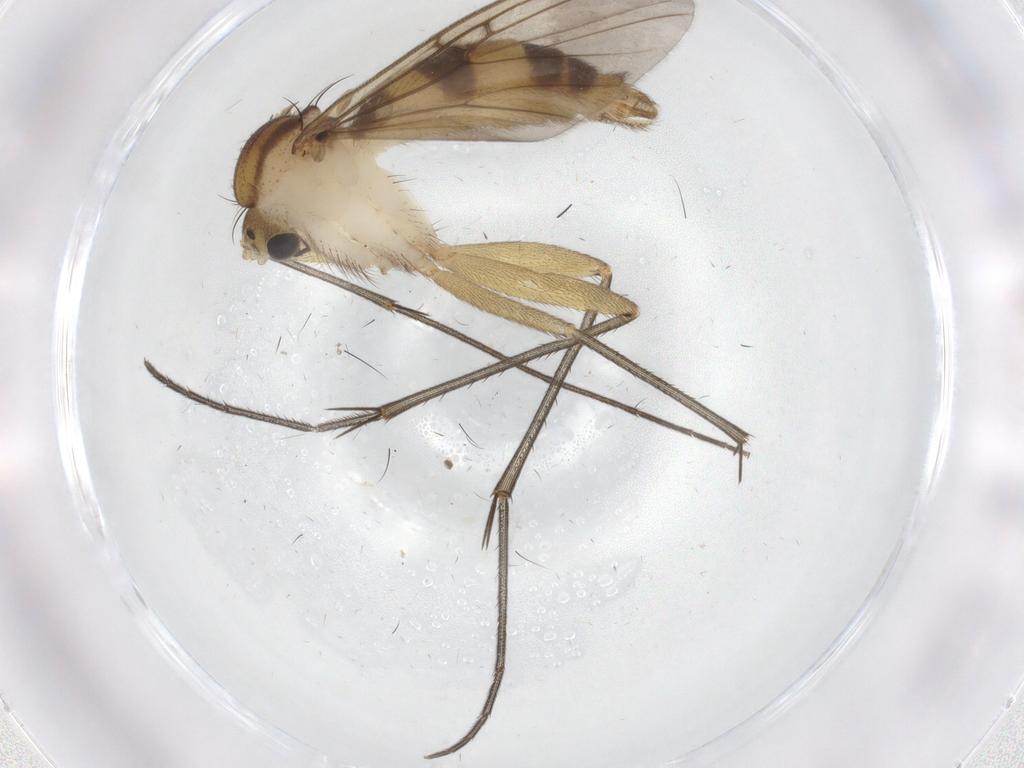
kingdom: Animalia
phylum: Arthropoda
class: Insecta
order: Diptera
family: Mycetophilidae
